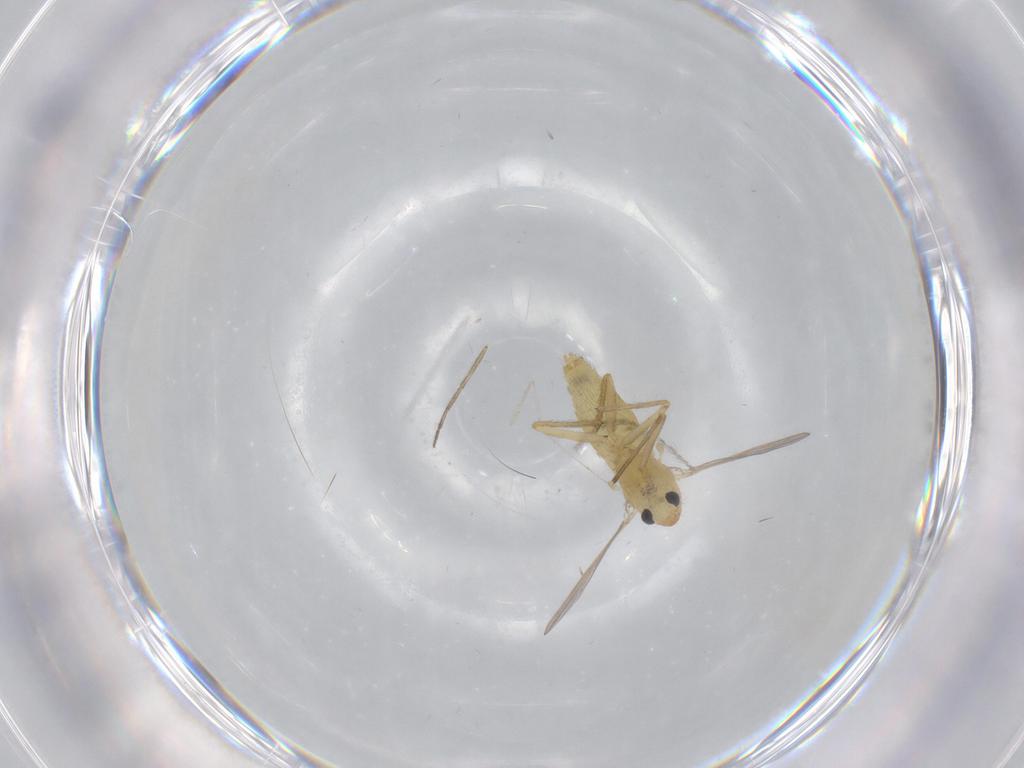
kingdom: Animalia
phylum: Arthropoda
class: Insecta
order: Diptera
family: Chironomidae
